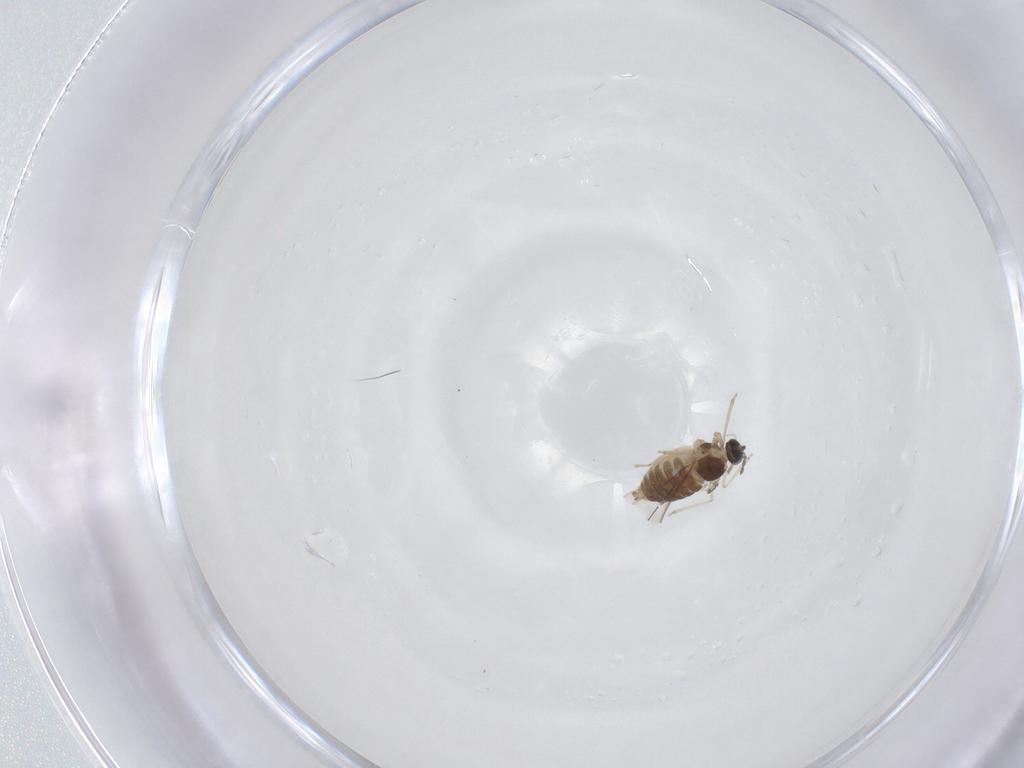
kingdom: Animalia
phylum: Arthropoda
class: Insecta
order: Diptera
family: Cecidomyiidae
